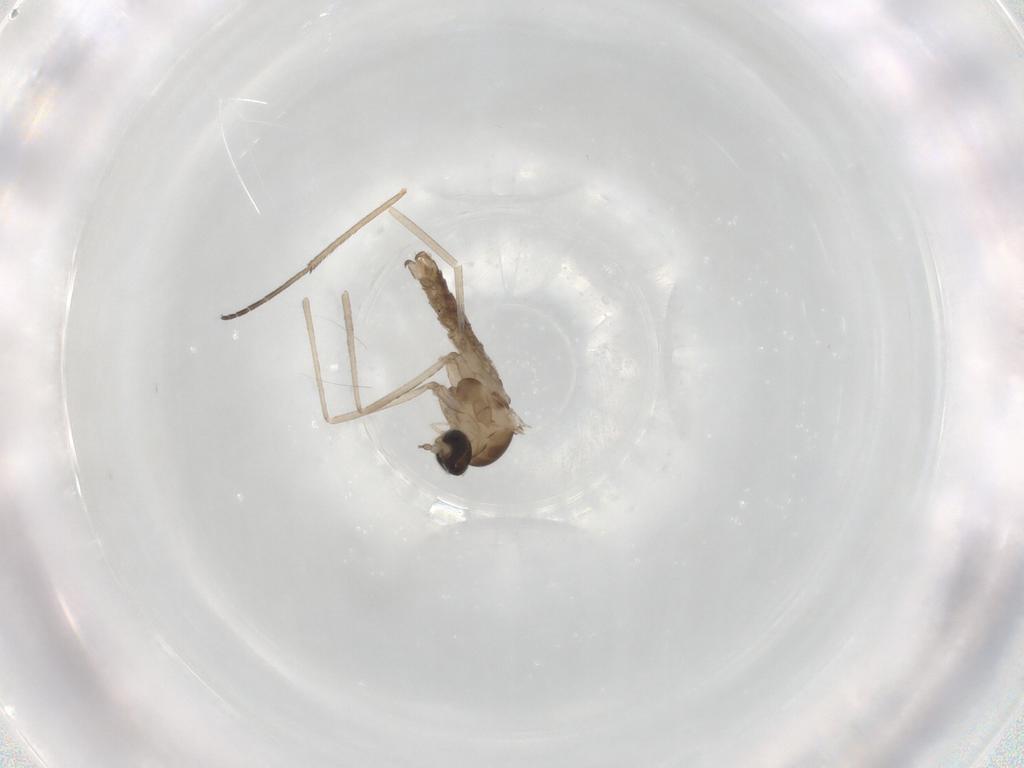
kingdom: Animalia
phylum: Arthropoda
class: Insecta
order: Diptera
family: Sciaridae
